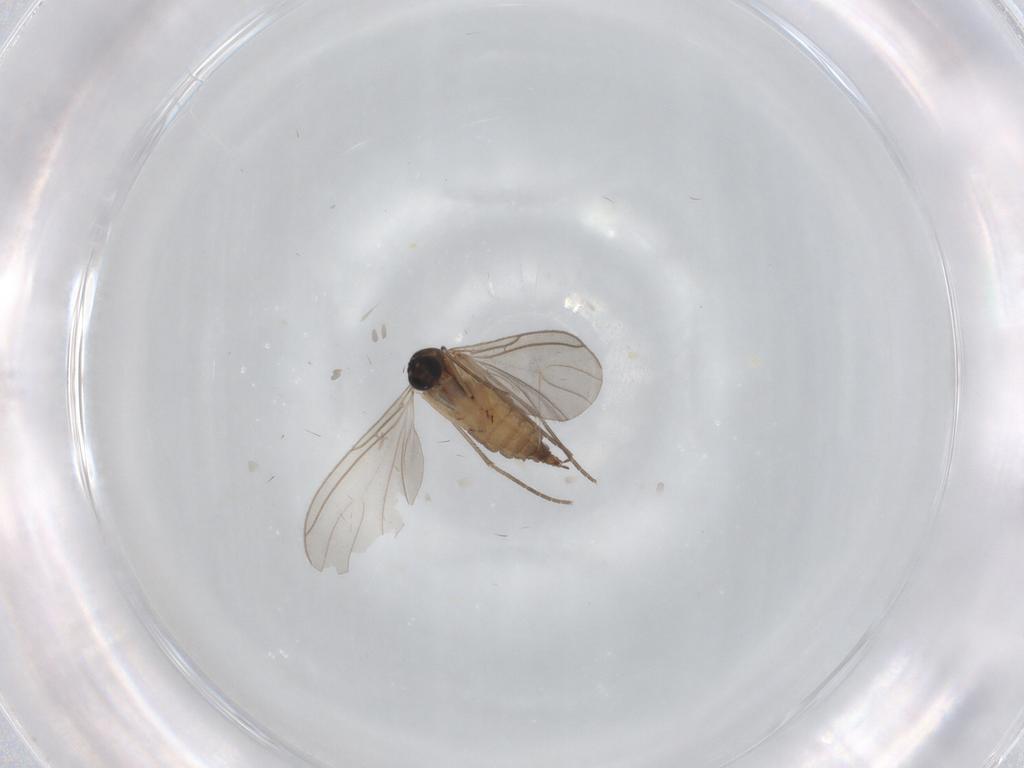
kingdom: Animalia
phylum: Arthropoda
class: Insecta
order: Diptera
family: Sciaridae
